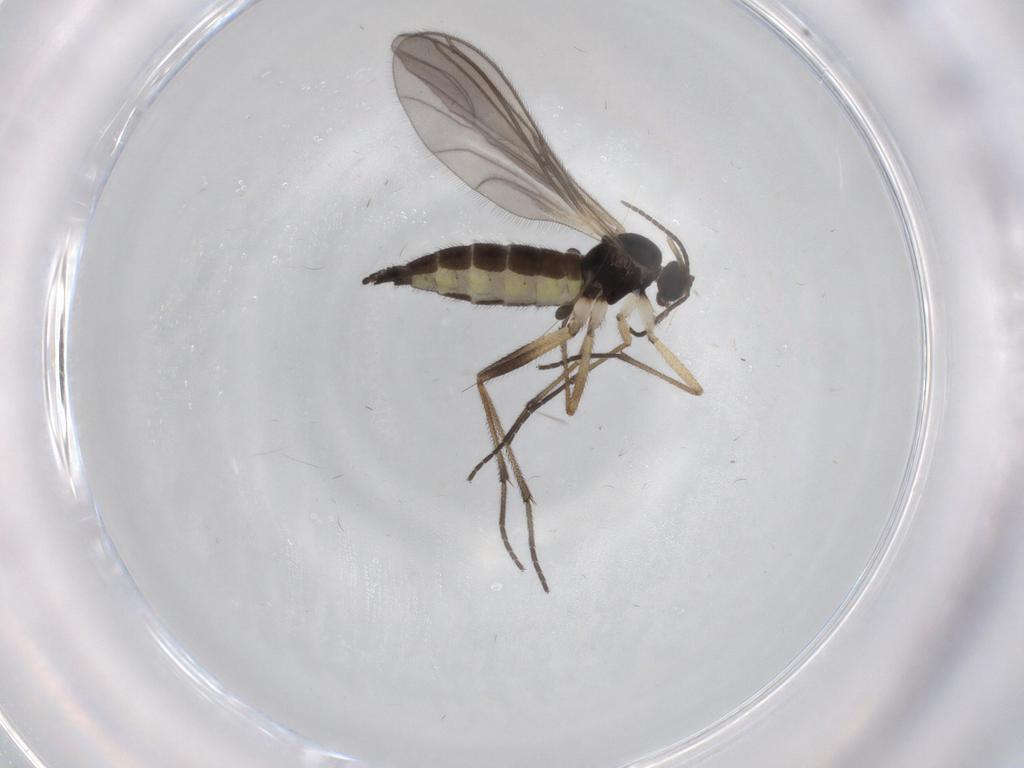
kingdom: Animalia
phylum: Arthropoda
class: Insecta
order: Diptera
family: Sciaridae
